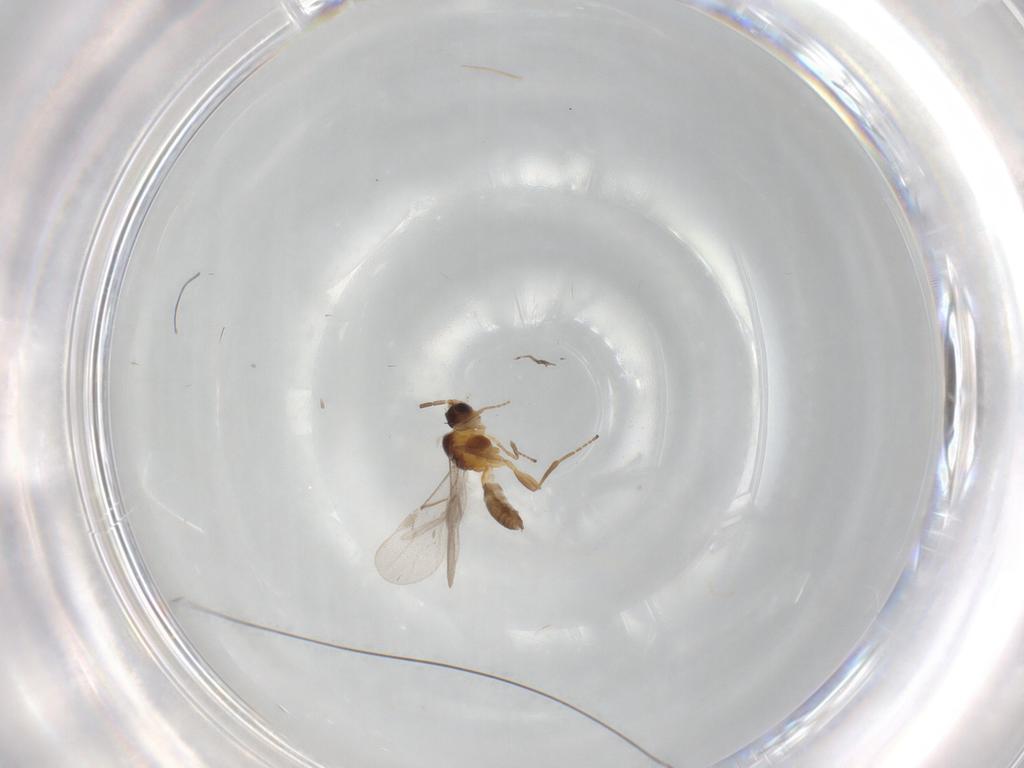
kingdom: Animalia
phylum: Arthropoda
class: Insecta
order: Hymenoptera
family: Braconidae
